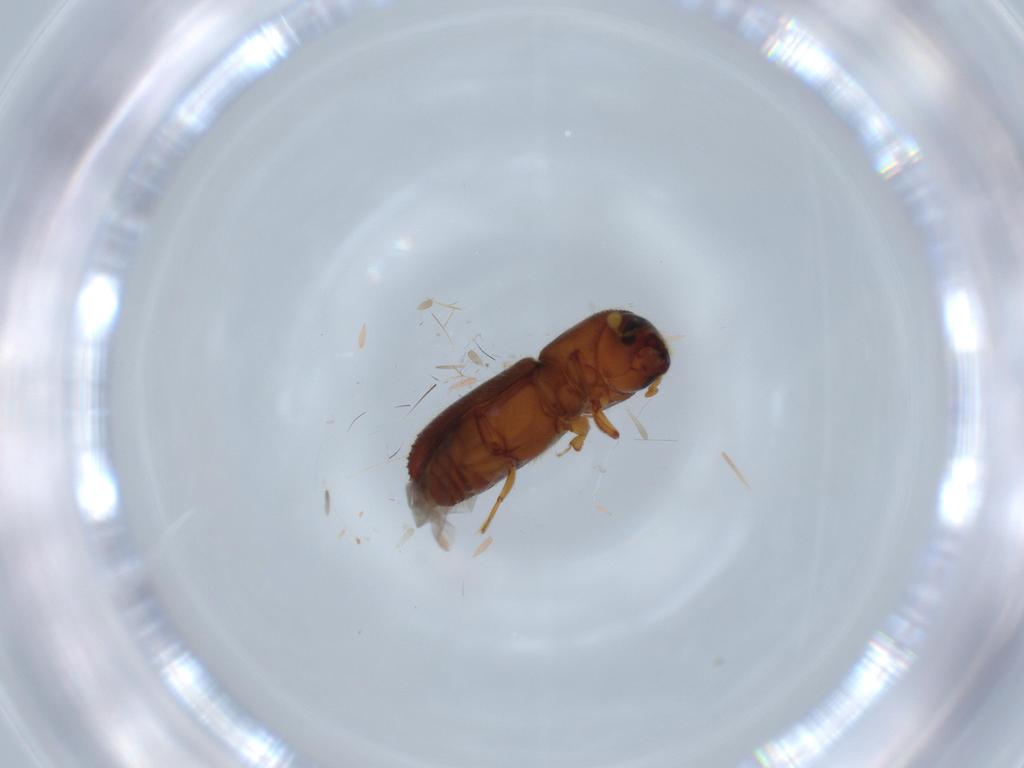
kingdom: Animalia
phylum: Arthropoda
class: Insecta
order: Coleoptera
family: Curculionidae
